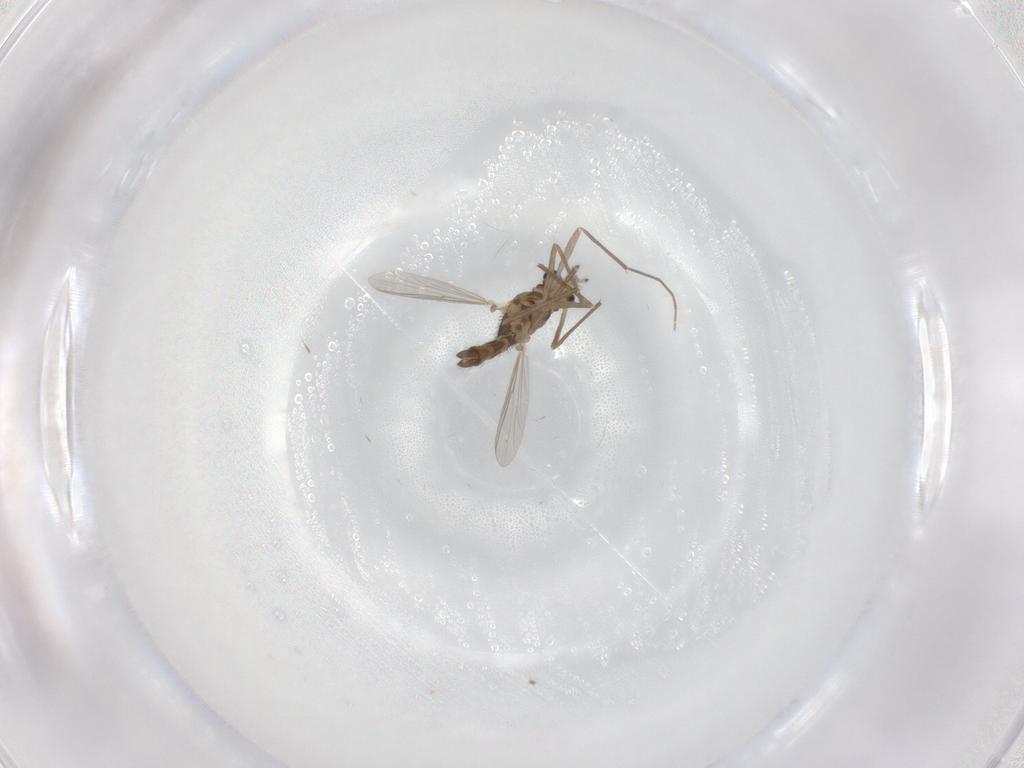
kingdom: Animalia
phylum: Arthropoda
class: Insecta
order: Diptera
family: Chironomidae
